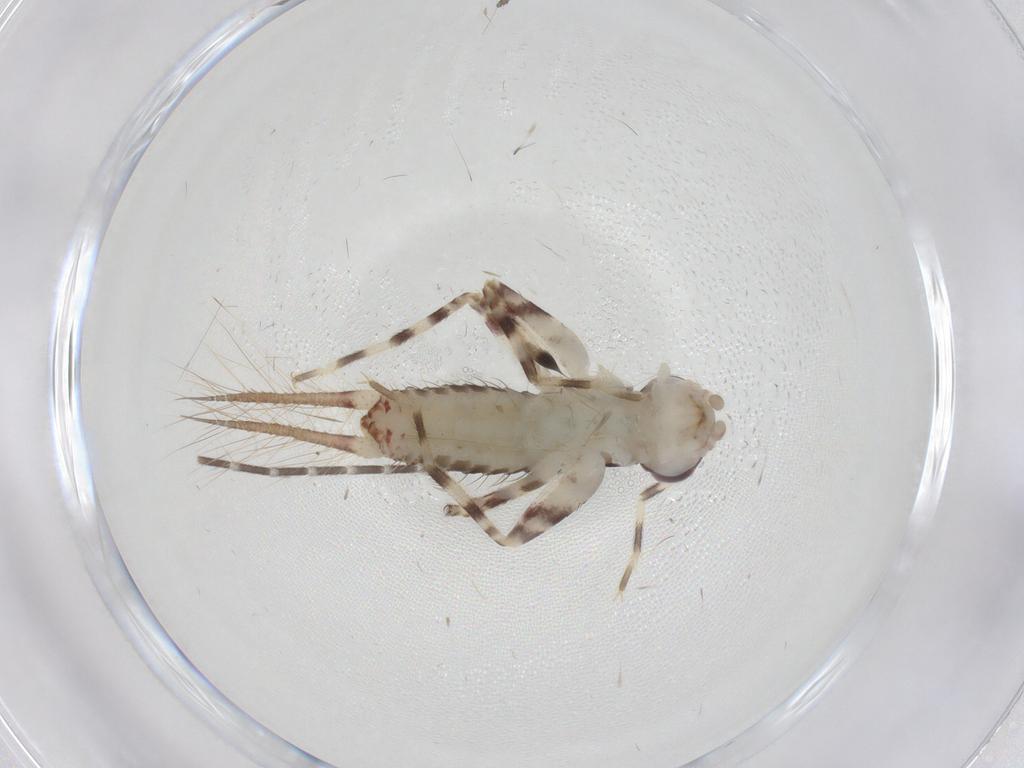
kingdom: Animalia
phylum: Arthropoda
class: Insecta
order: Orthoptera
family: Gryllidae
